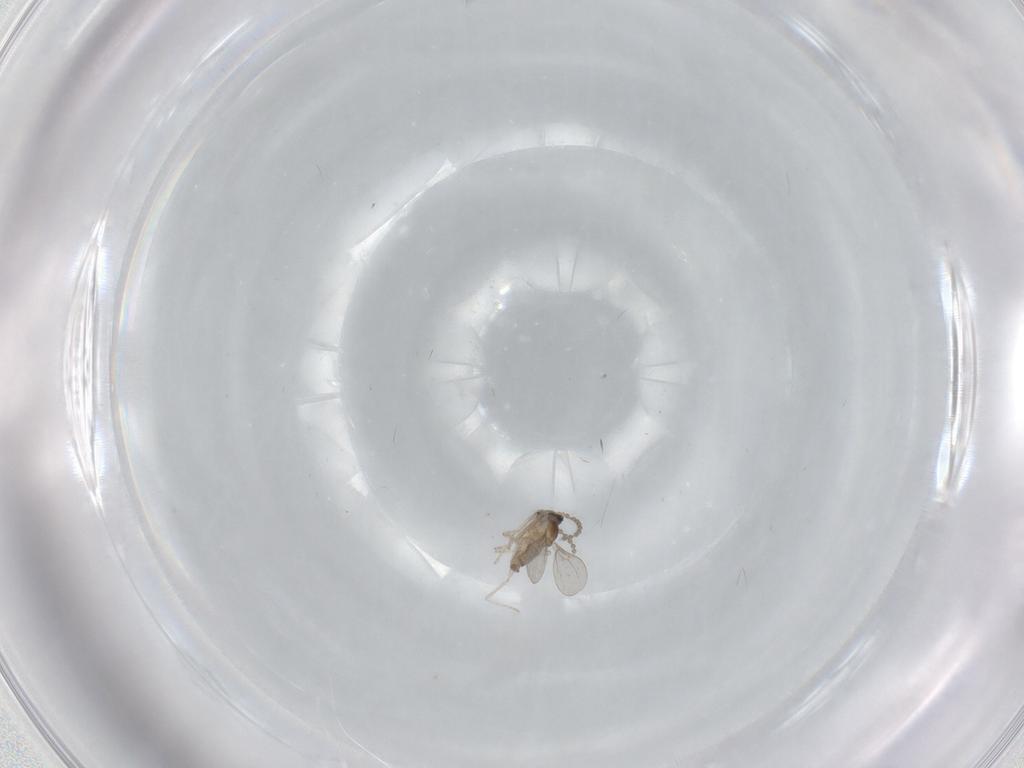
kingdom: Animalia
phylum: Arthropoda
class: Insecta
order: Diptera
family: Cecidomyiidae
